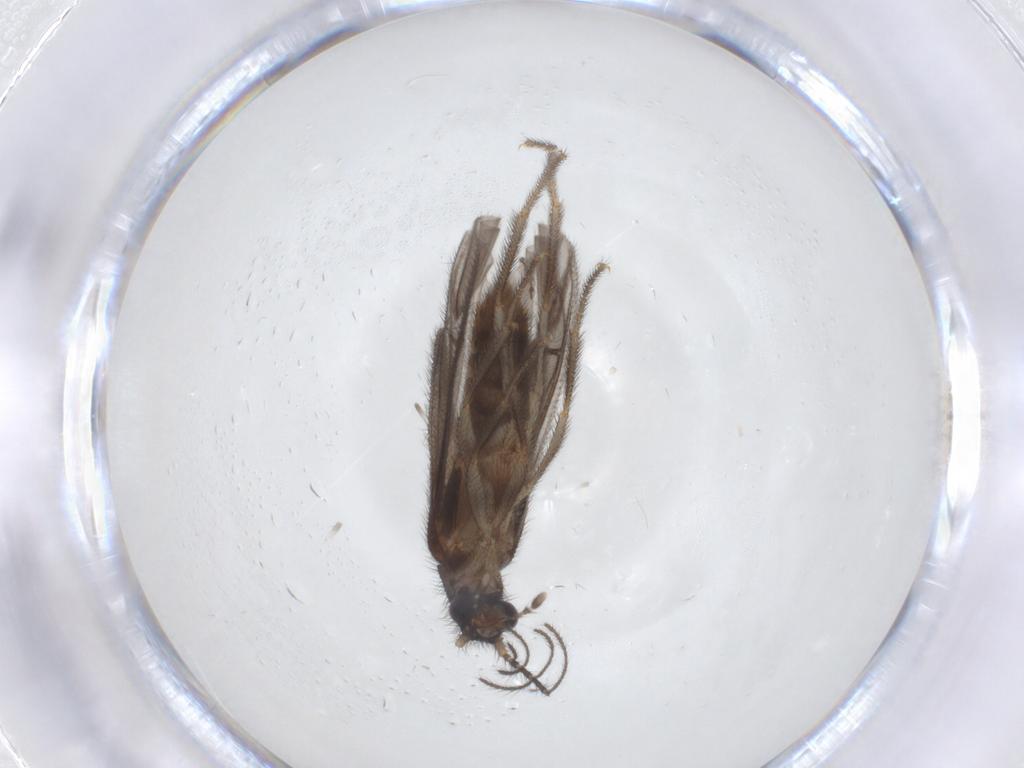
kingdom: Animalia
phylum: Arthropoda
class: Insecta
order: Coleoptera
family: Phengodidae
